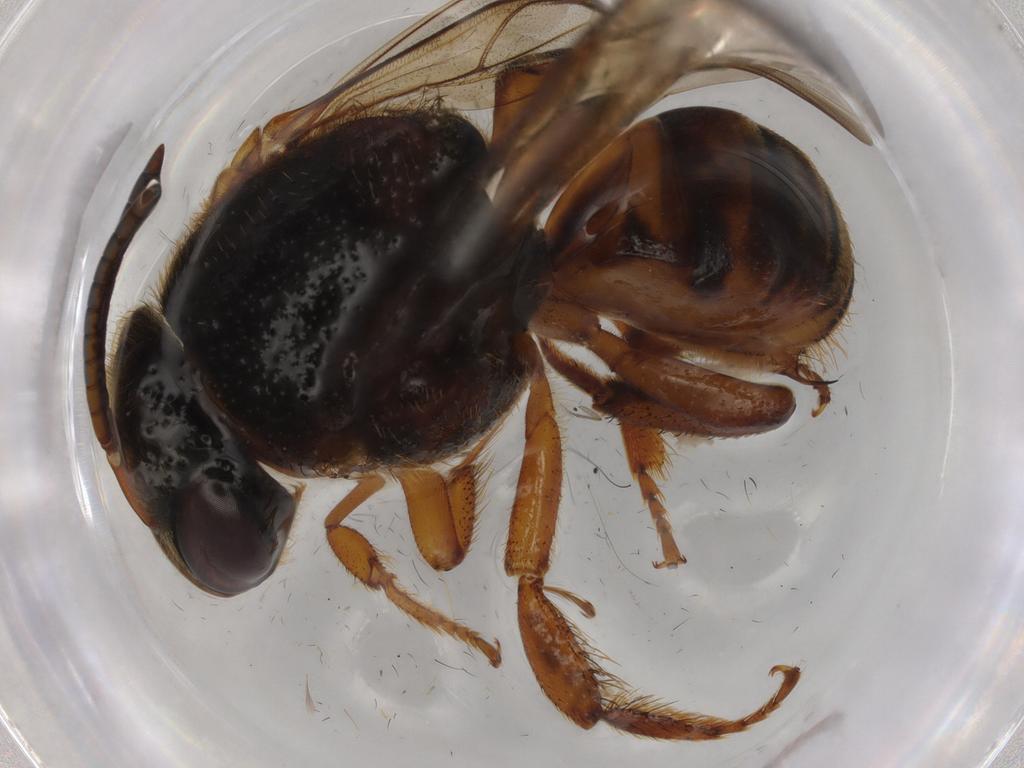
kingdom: Animalia
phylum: Arthropoda
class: Insecta
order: Hymenoptera
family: Apidae
